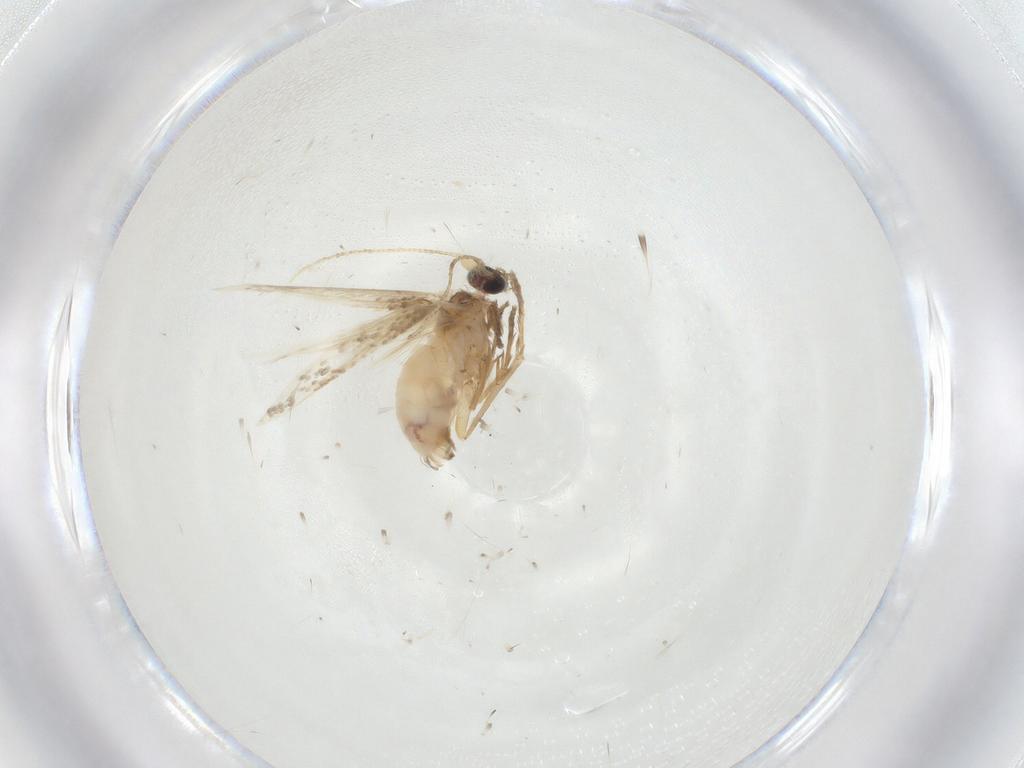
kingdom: Animalia
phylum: Arthropoda
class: Insecta
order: Lepidoptera
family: Nepticulidae
